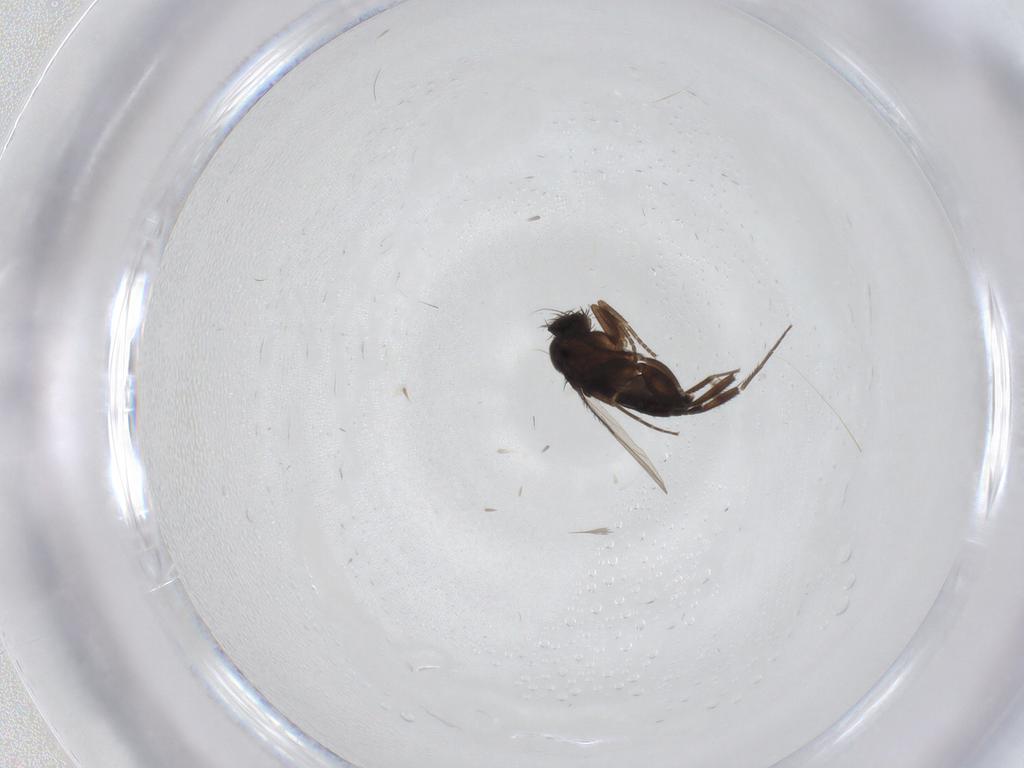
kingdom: Animalia
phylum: Arthropoda
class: Insecta
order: Diptera
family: Phoridae
